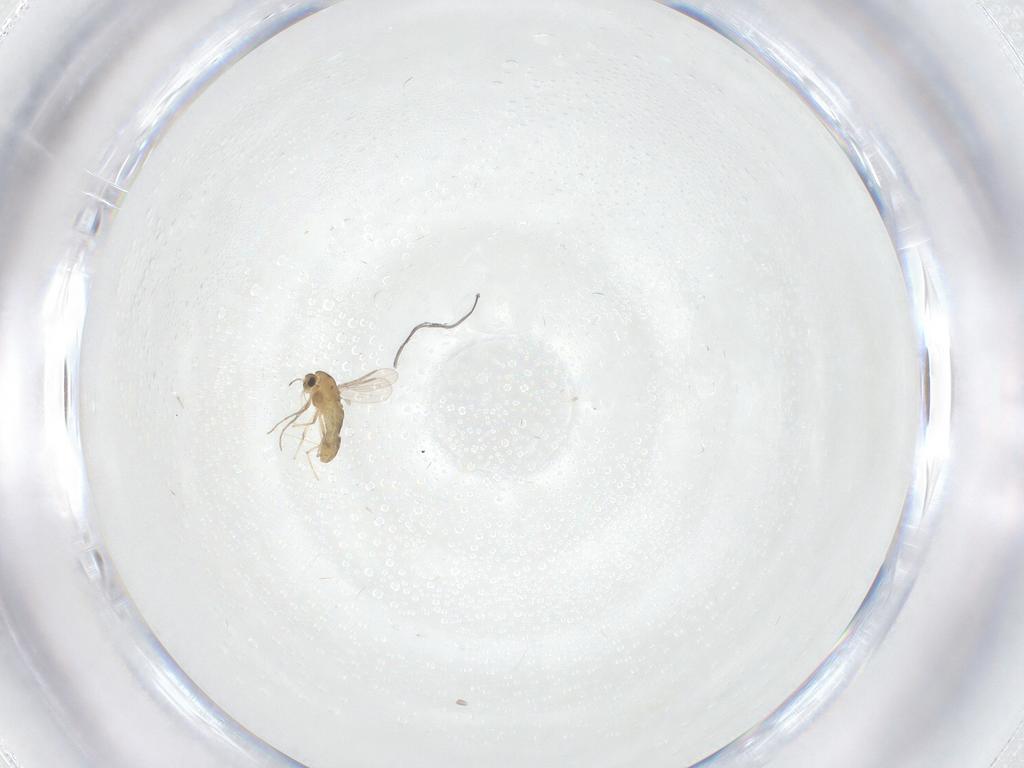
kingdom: Animalia
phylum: Arthropoda
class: Insecta
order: Diptera
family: Chironomidae
